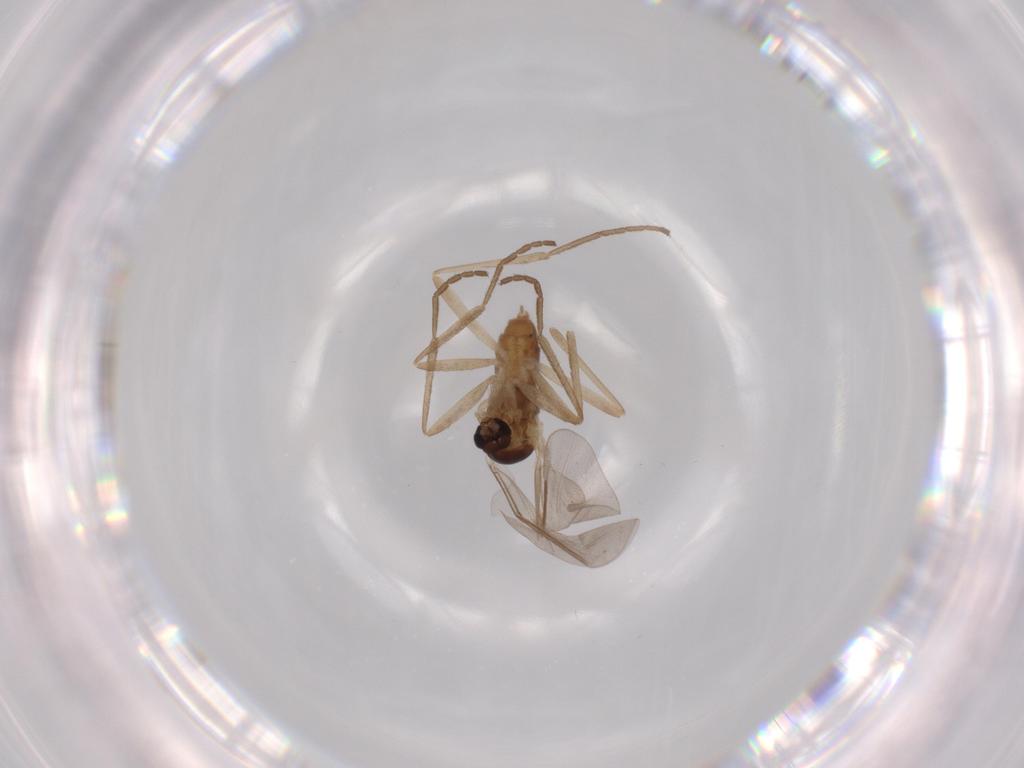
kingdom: Animalia
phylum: Arthropoda
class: Insecta
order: Diptera
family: Cecidomyiidae
